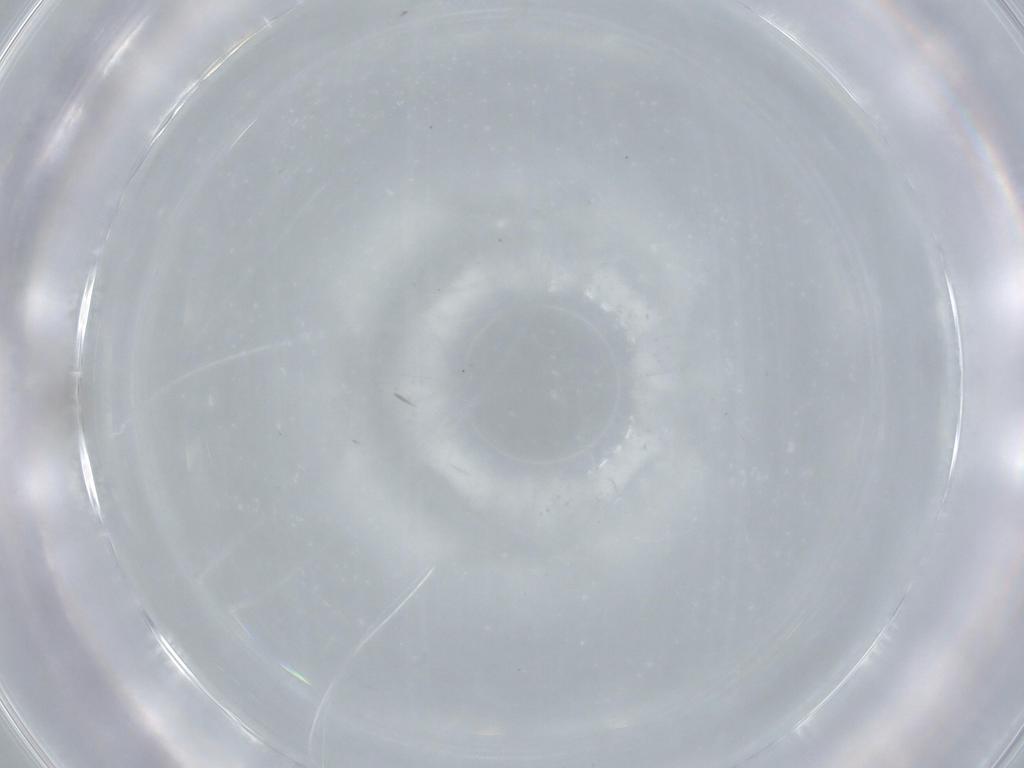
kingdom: Animalia
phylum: Arthropoda
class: Insecta
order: Diptera
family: Sciaridae
